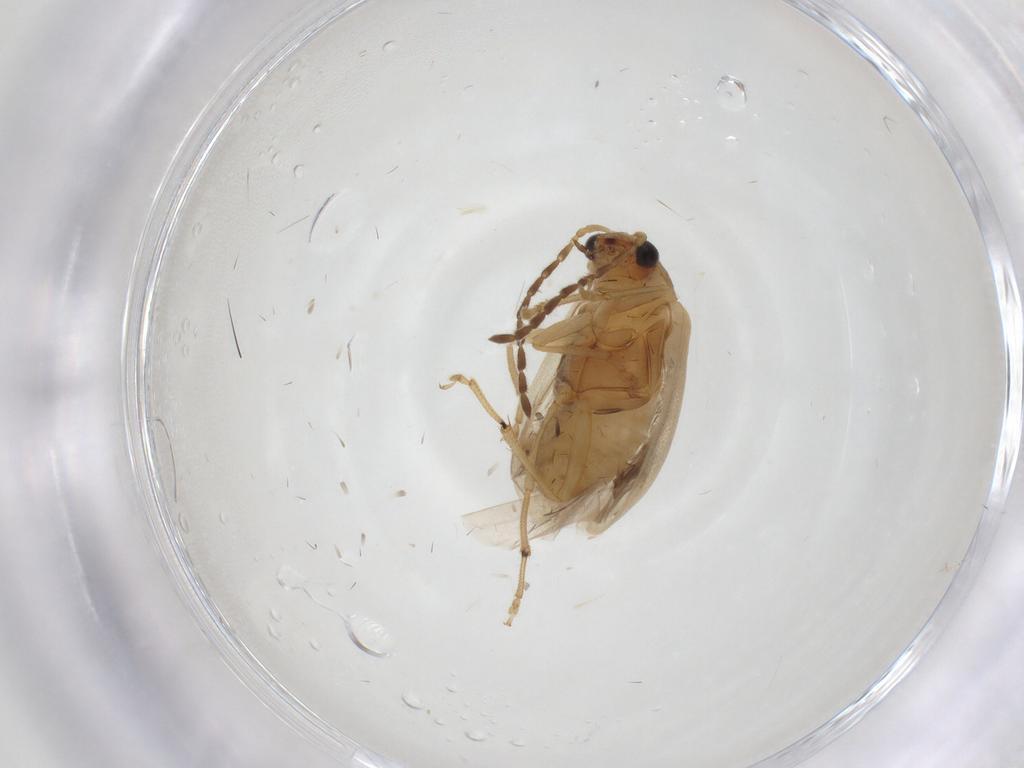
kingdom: Animalia
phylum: Arthropoda
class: Insecta
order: Coleoptera
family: Chrysomelidae
